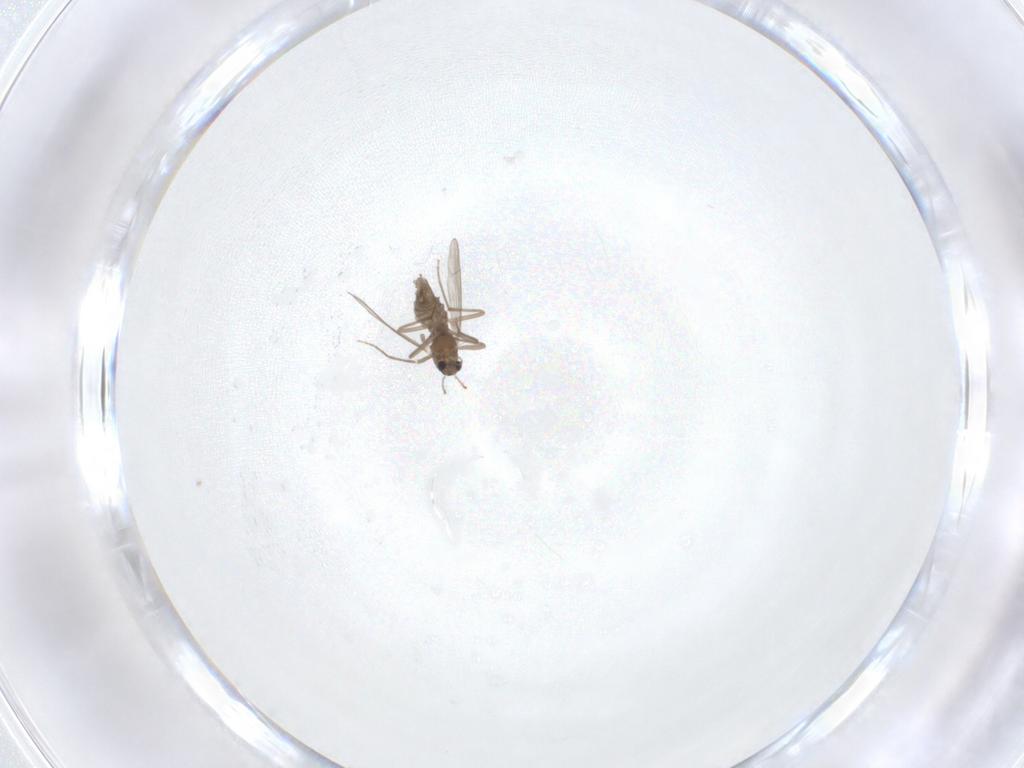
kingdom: Animalia
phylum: Arthropoda
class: Insecta
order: Diptera
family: Chironomidae
